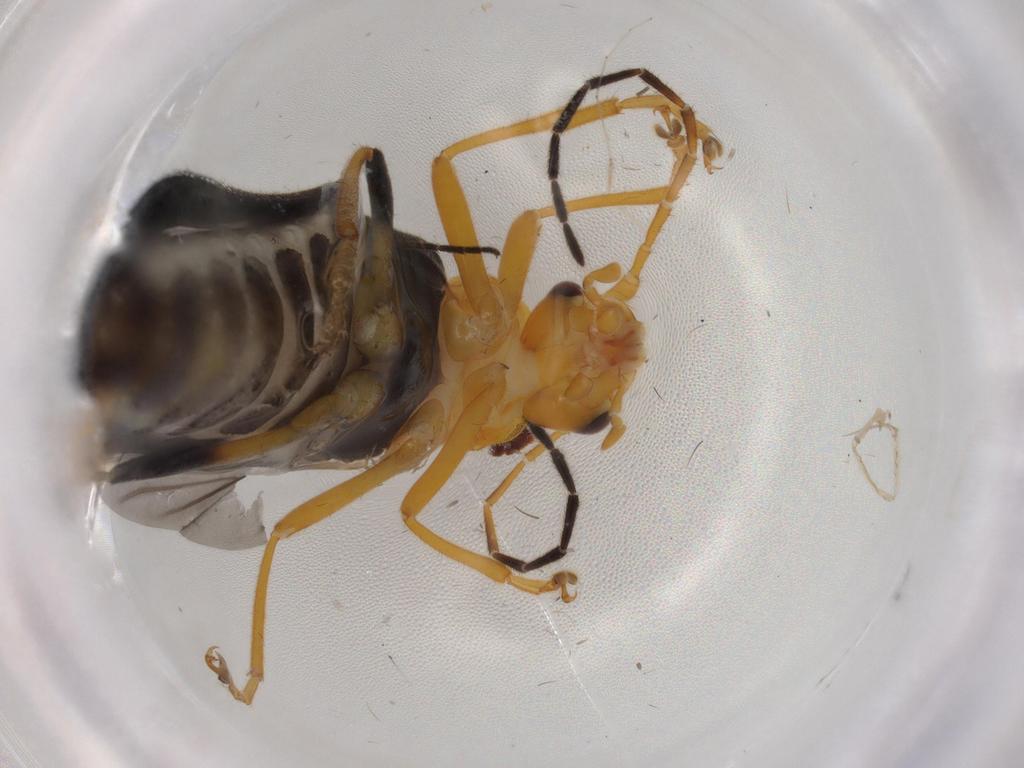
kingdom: Animalia
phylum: Arthropoda
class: Insecta
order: Coleoptera
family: Cantharidae
